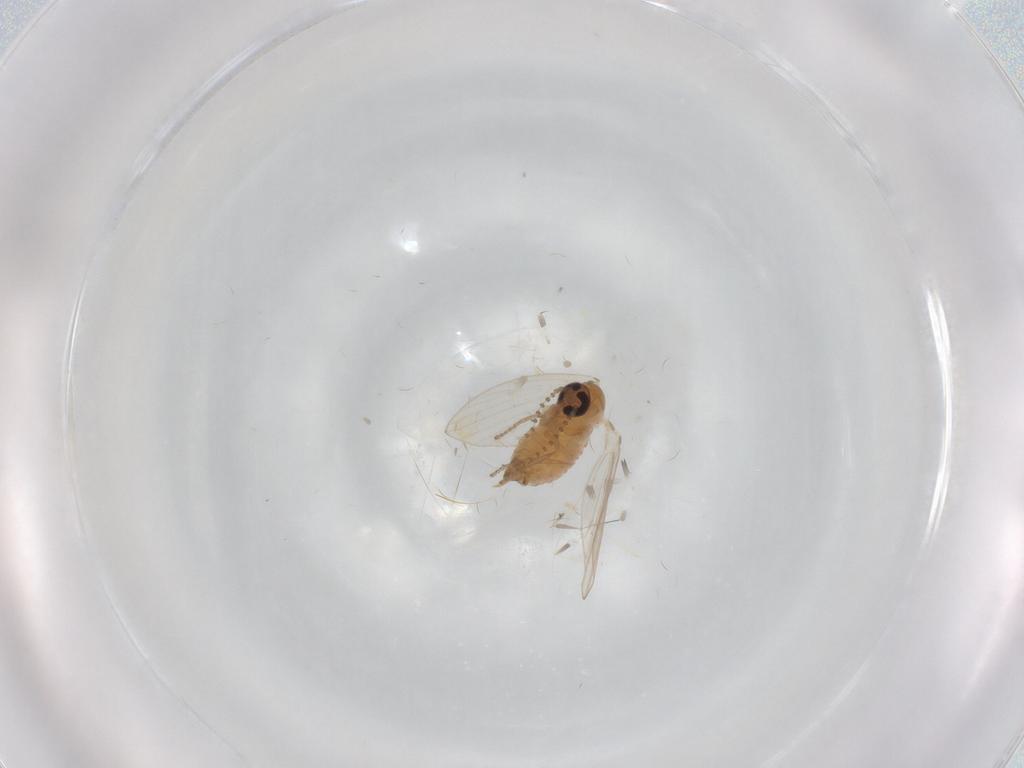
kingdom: Animalia
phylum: Arthropoda
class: Insecta
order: Diptera
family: Psychodidae
